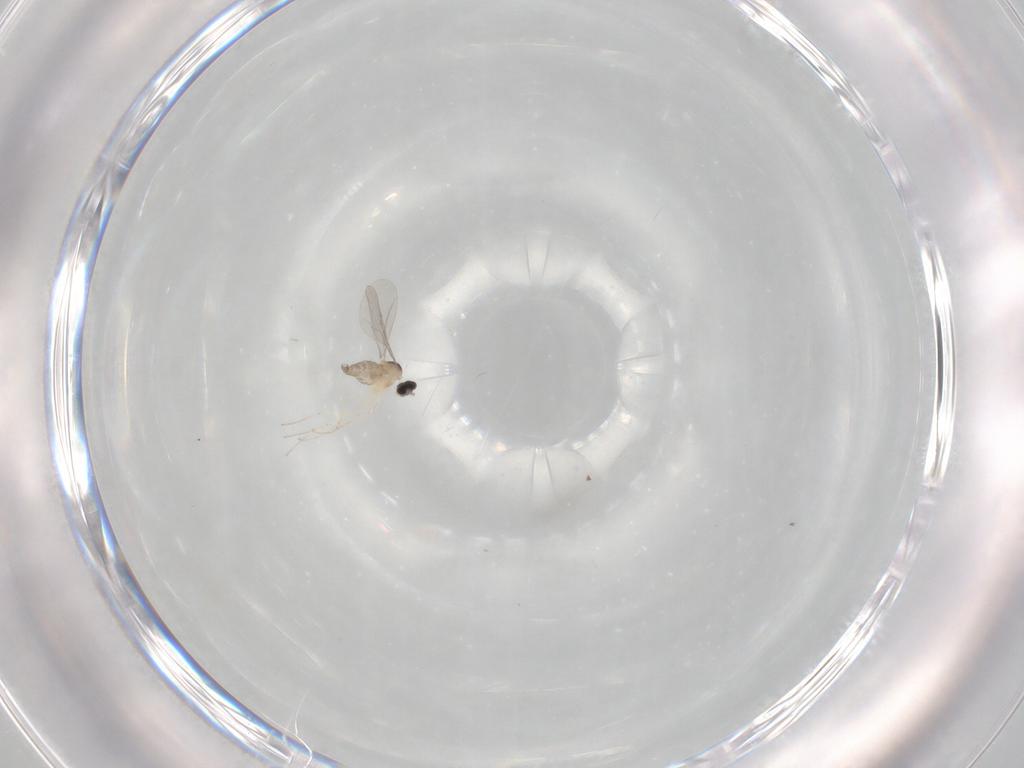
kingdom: Animalia
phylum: Arthropoda
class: Insecta
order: Diptera
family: Cecidomyiidae
